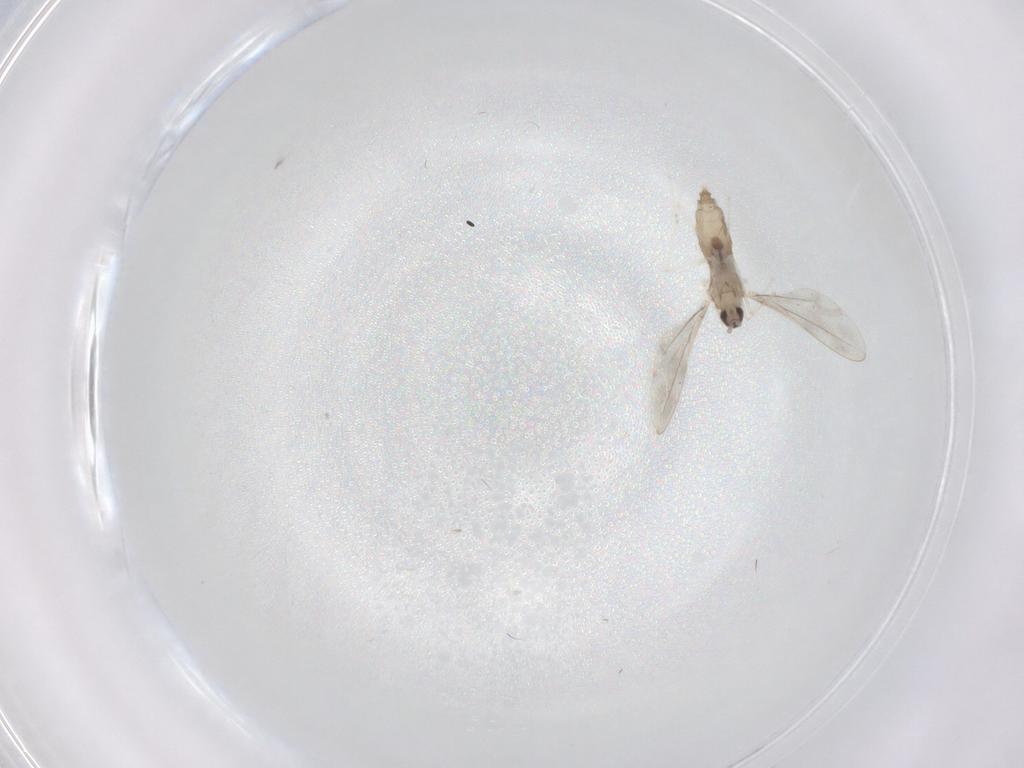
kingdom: Animalia
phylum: Arthropoda
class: Insecta
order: Diptera
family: Cecidomyiidae
